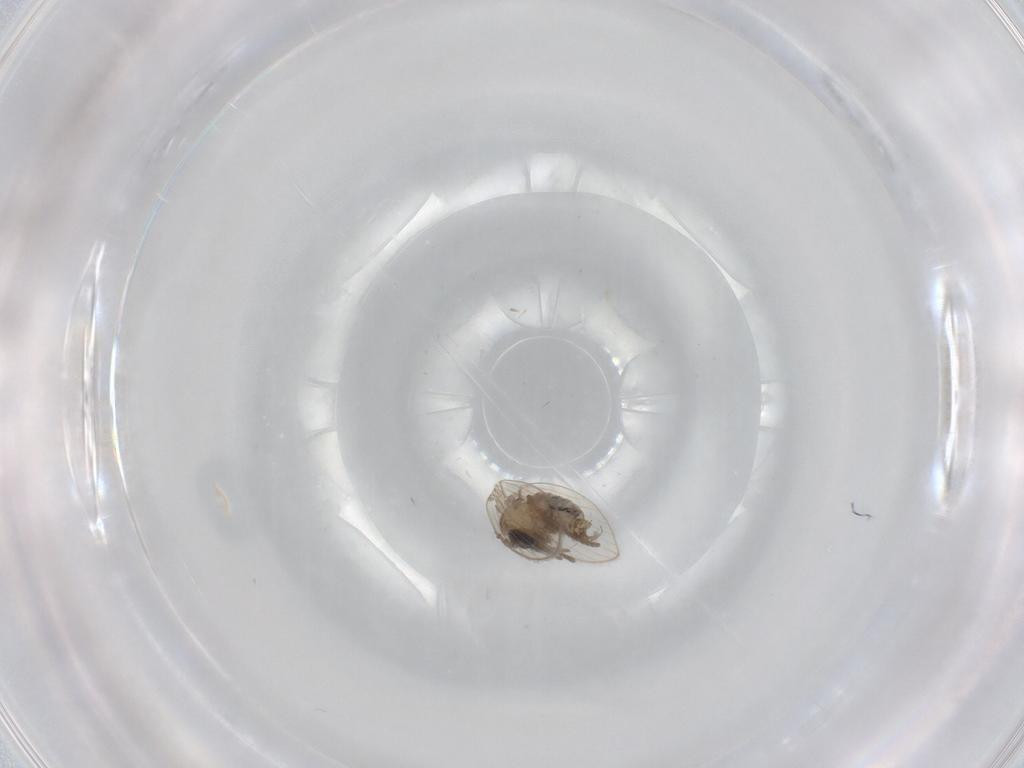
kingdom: Animalia
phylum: Arthropoda
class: Insecta
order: Diptera
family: Psychodidae
